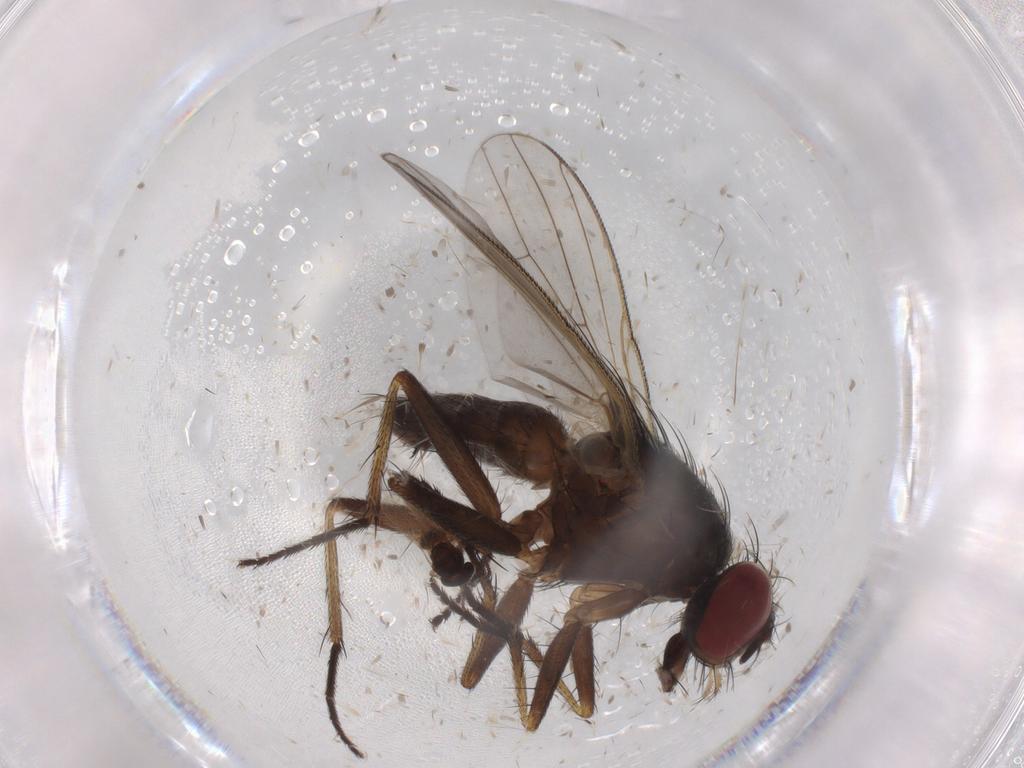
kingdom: Animalia
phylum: Arthropoda
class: Insecta
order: Diptera
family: Muscidae
